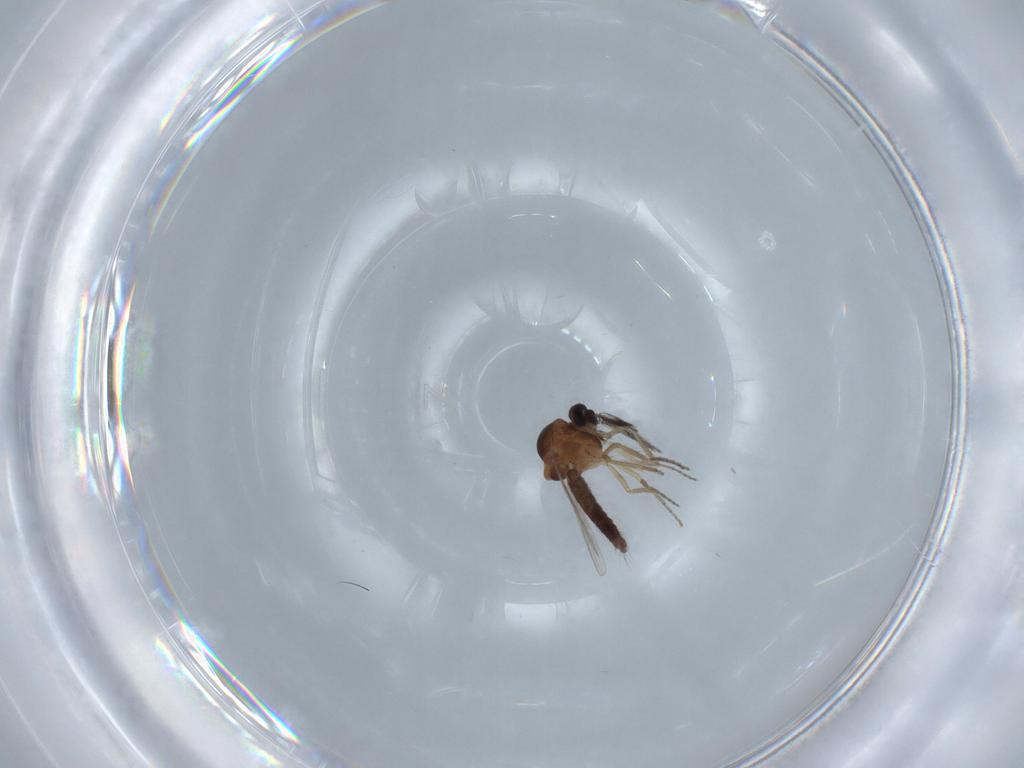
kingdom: Animalia
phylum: Arthropoda
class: Insecta
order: Diptera
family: Ceratopogonidae
